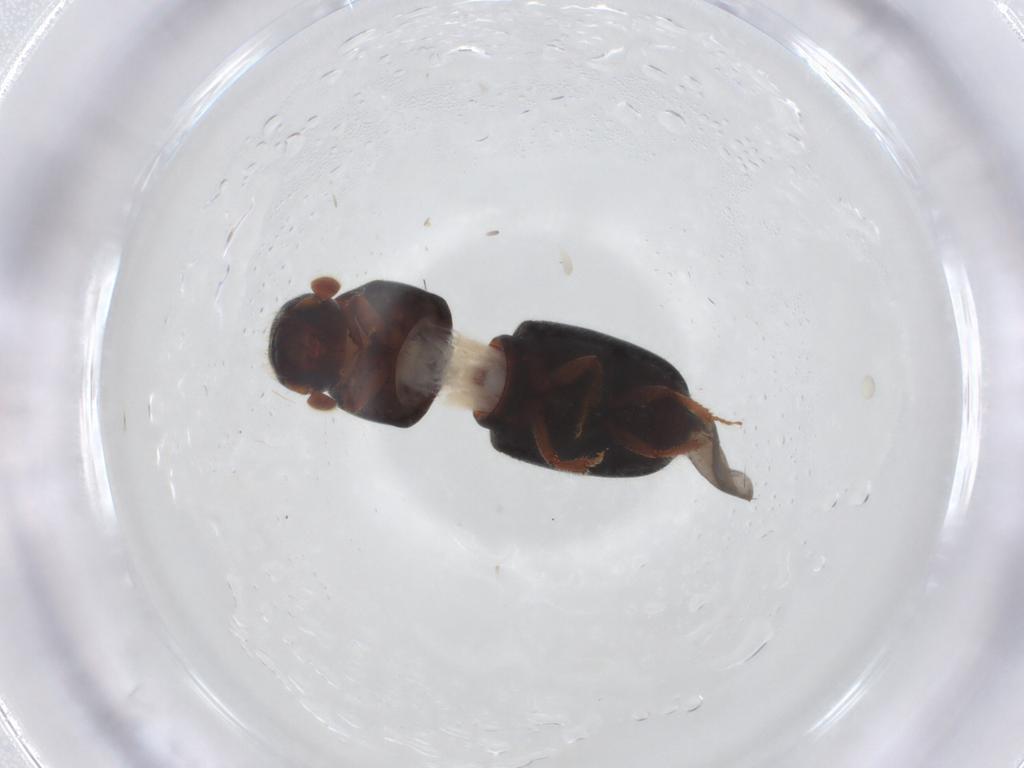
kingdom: Animalia
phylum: Arthropoda
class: Insecta
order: Coleoptera
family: Curculionidae
